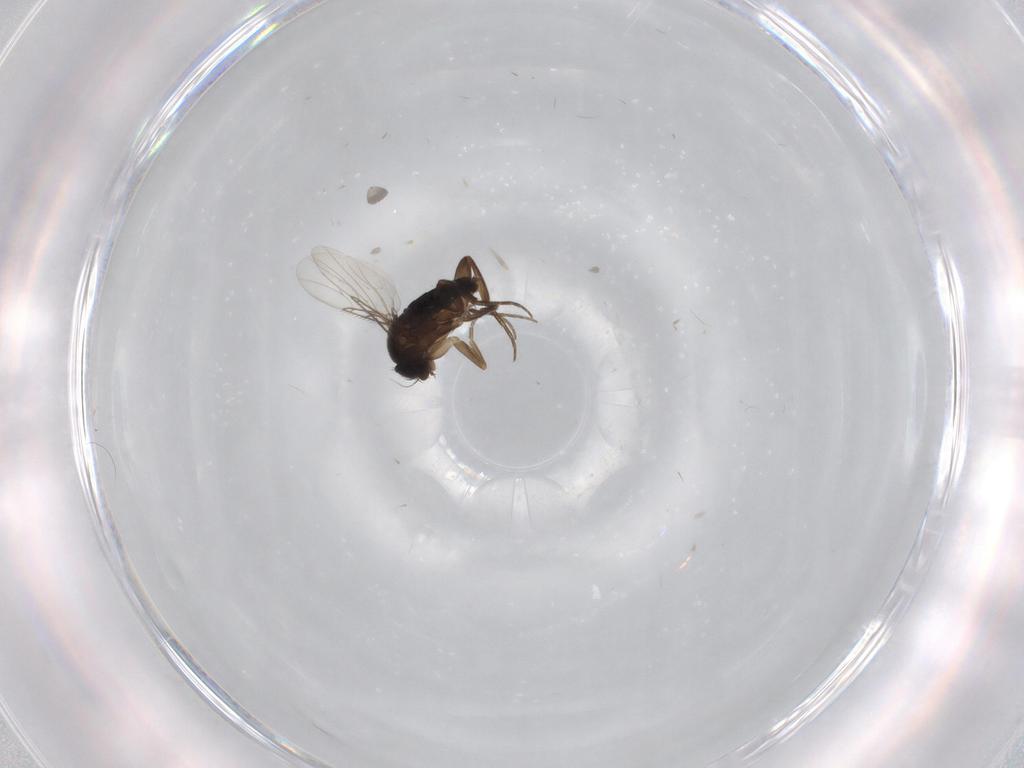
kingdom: Animalia
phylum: Arthropoda
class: Insecta
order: Diptera
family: Phoridae
